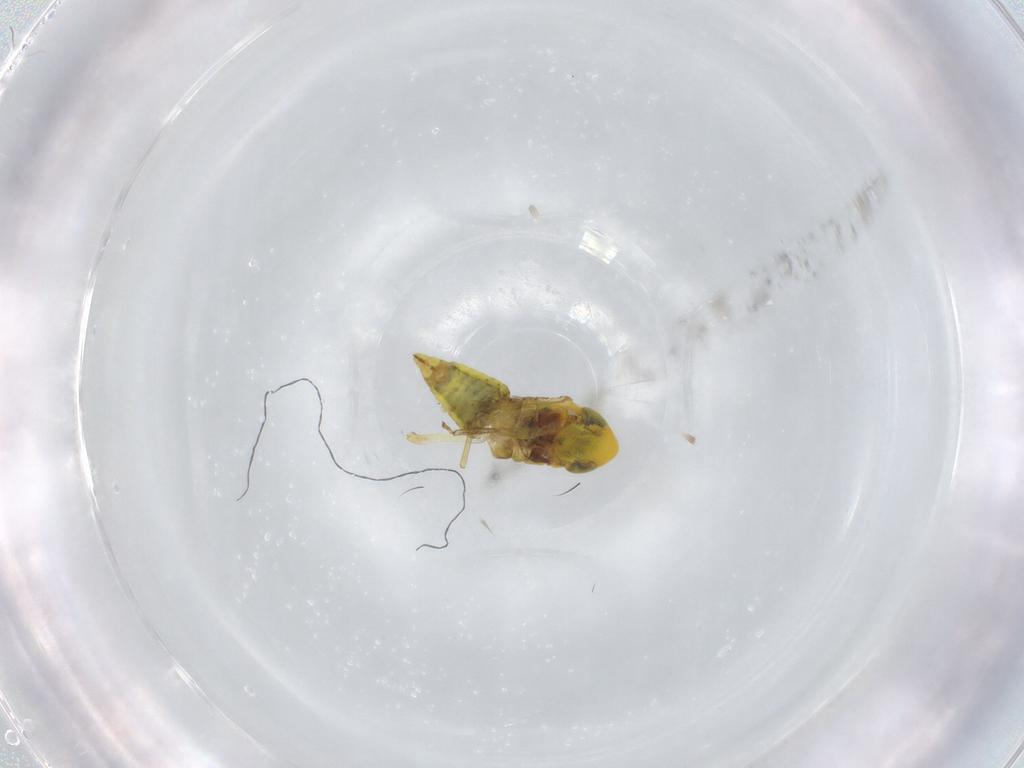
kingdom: Animalia
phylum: Arthropoda
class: Insecta
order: Hemiptera
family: Cicadellidae
